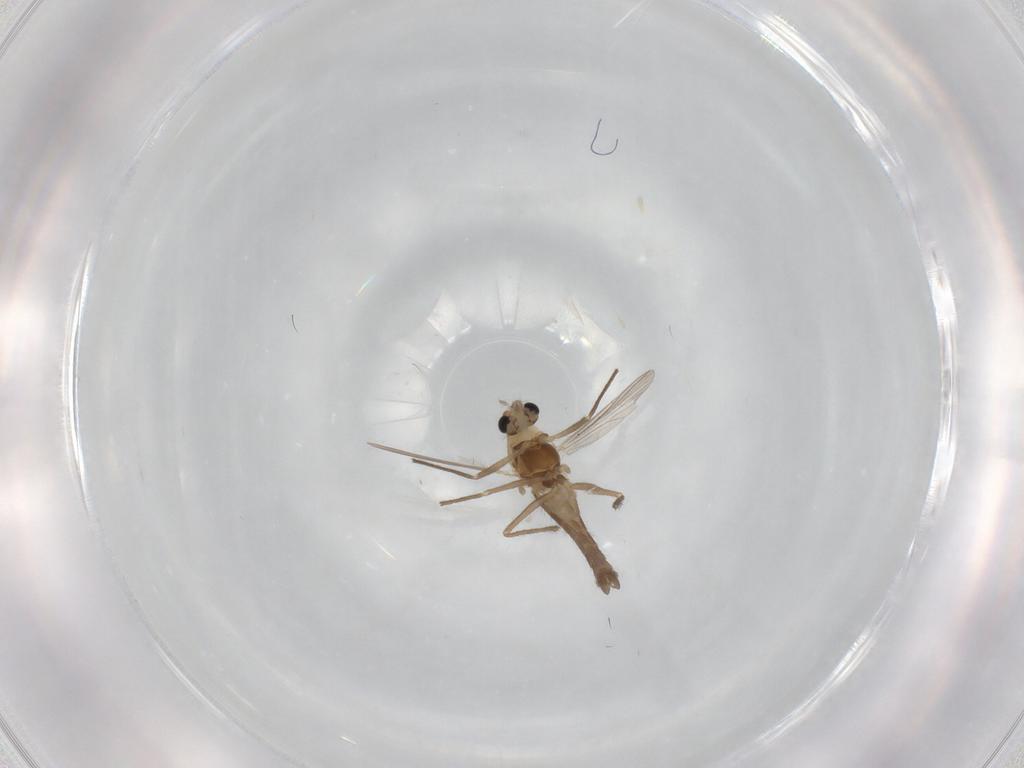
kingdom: Animalia
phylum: Arthropoda
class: Insecta
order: Diptera
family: Chironomidae
